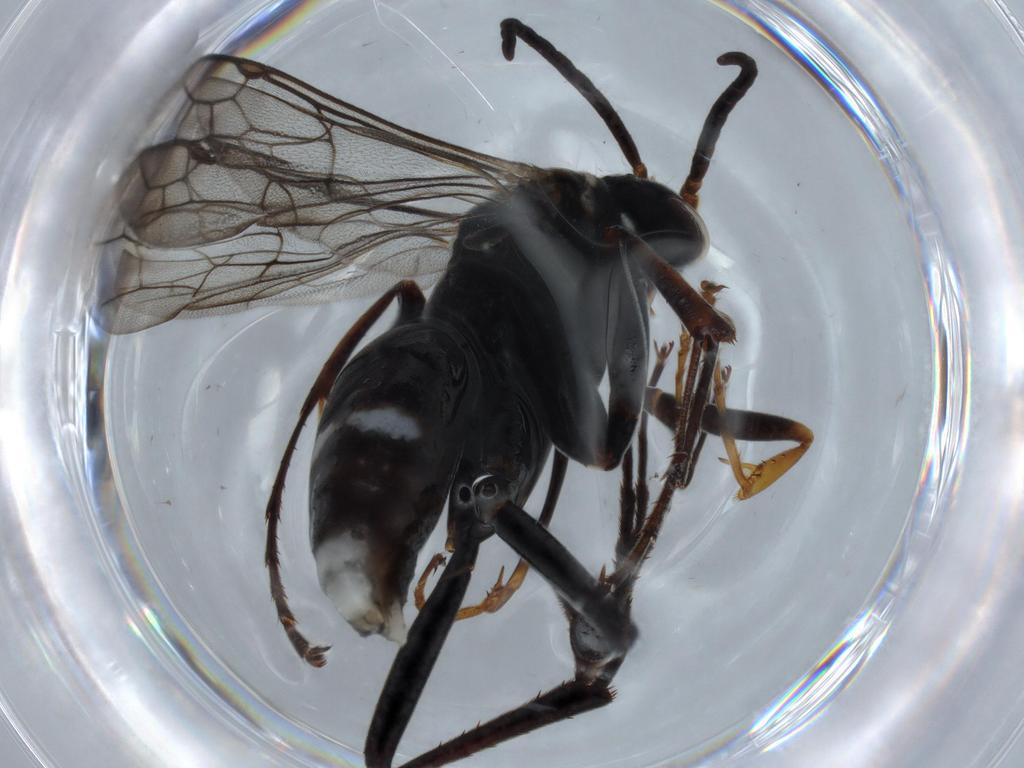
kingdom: Animalia
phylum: Arthropoda
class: Insecta
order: Hymenoptera
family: Pompilidae
